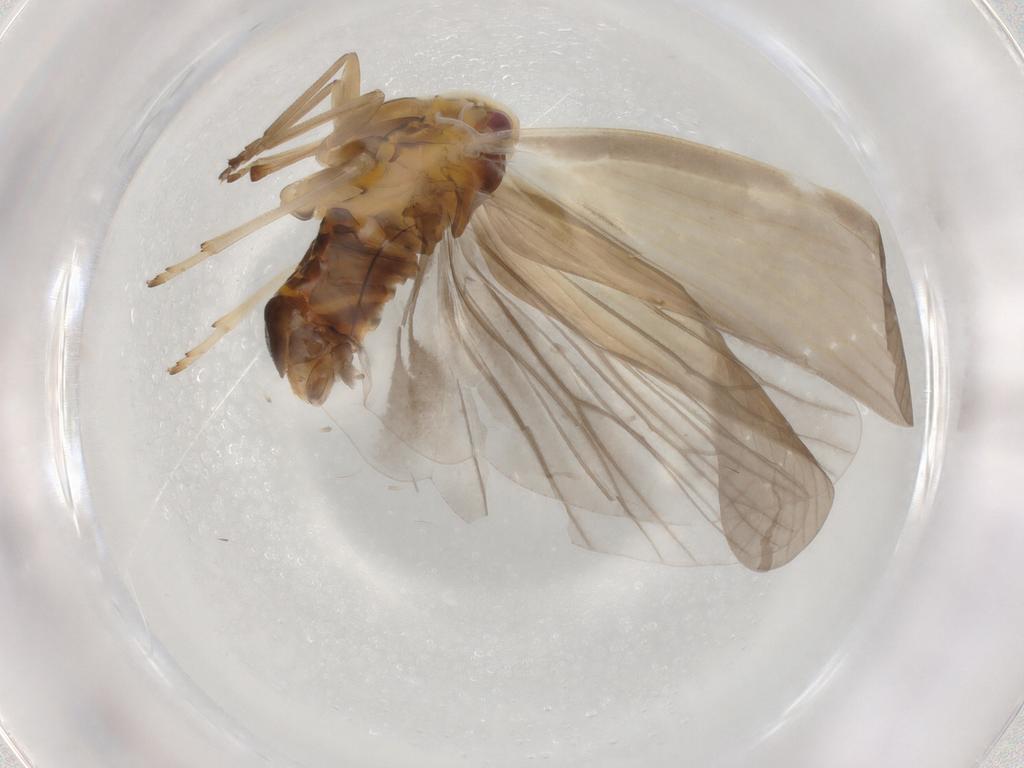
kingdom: Animalia
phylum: Arthropoda
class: Insecta
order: Hemiptera
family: Derbidae
